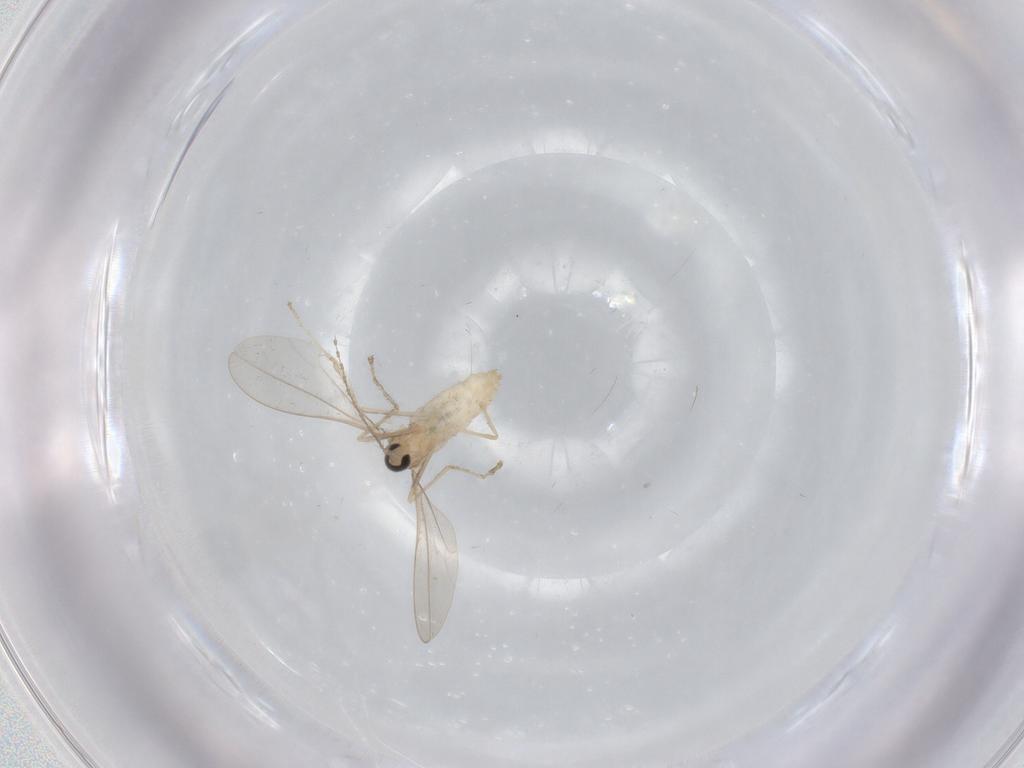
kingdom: Animalia
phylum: Arthropoda
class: Insecta
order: Diptera
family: Cecidomyiidae
